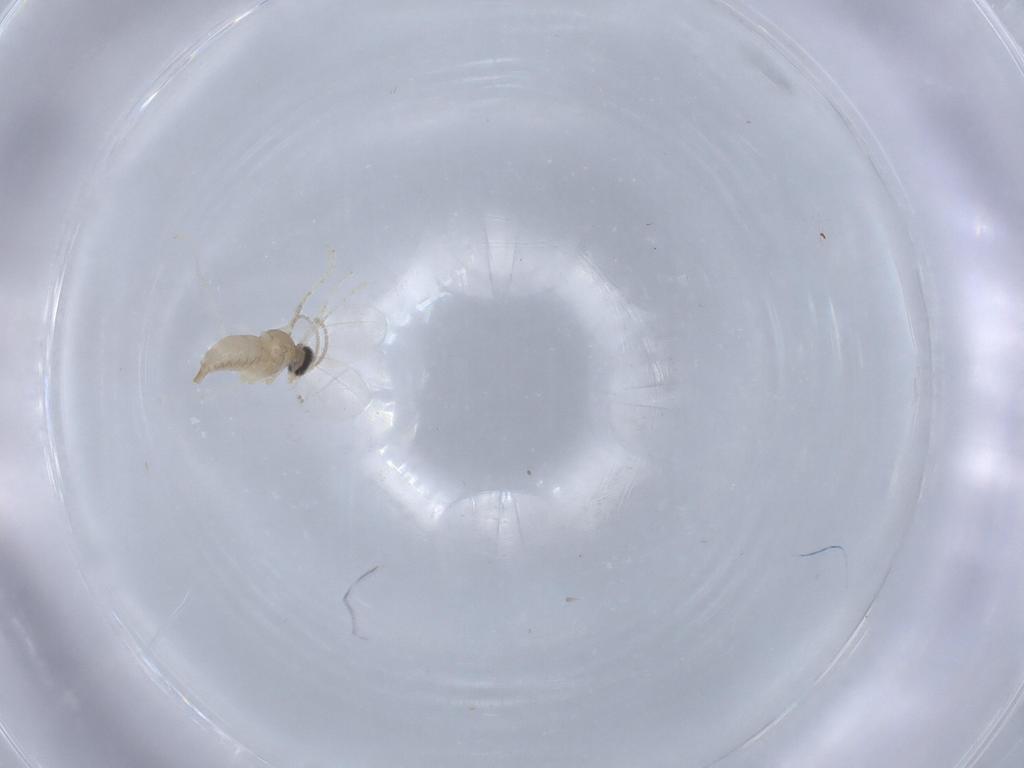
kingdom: Animalia
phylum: Arthropoda
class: Insecta
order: Diptera
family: Cecidomyiidae
